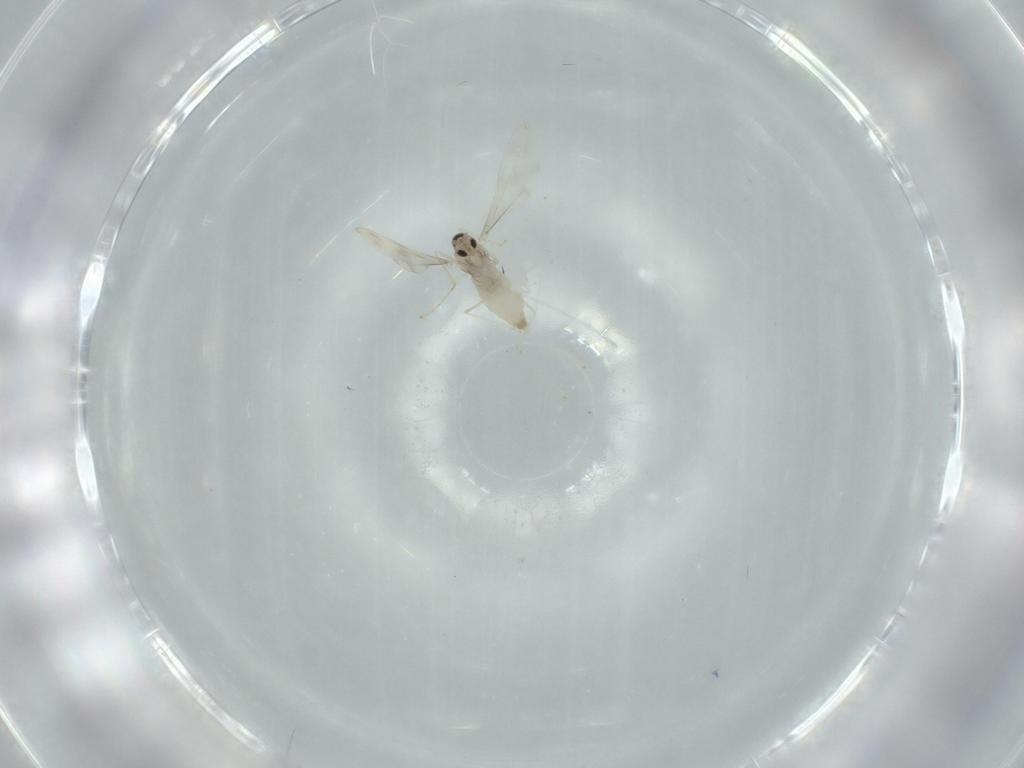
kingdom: Animalia
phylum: Arthropoda
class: Insecta
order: Diptera
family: Cecidomyiidae
